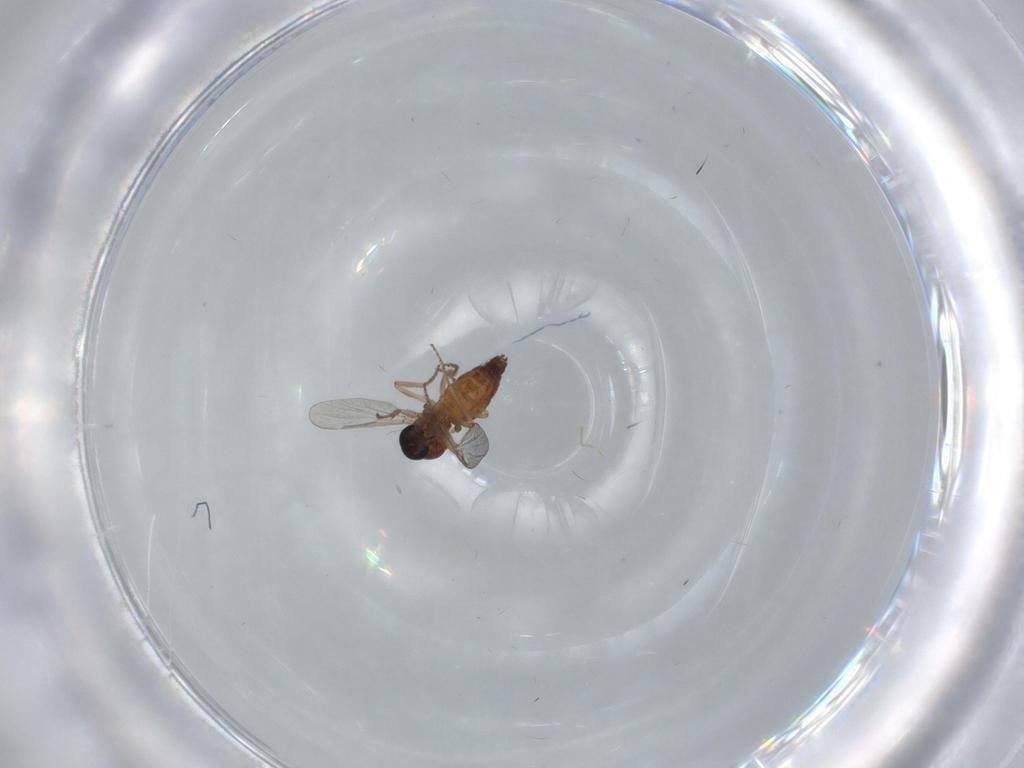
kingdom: Animalia
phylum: Arthropoda
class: Insecta
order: Diptera
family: Ceratopogonidae
